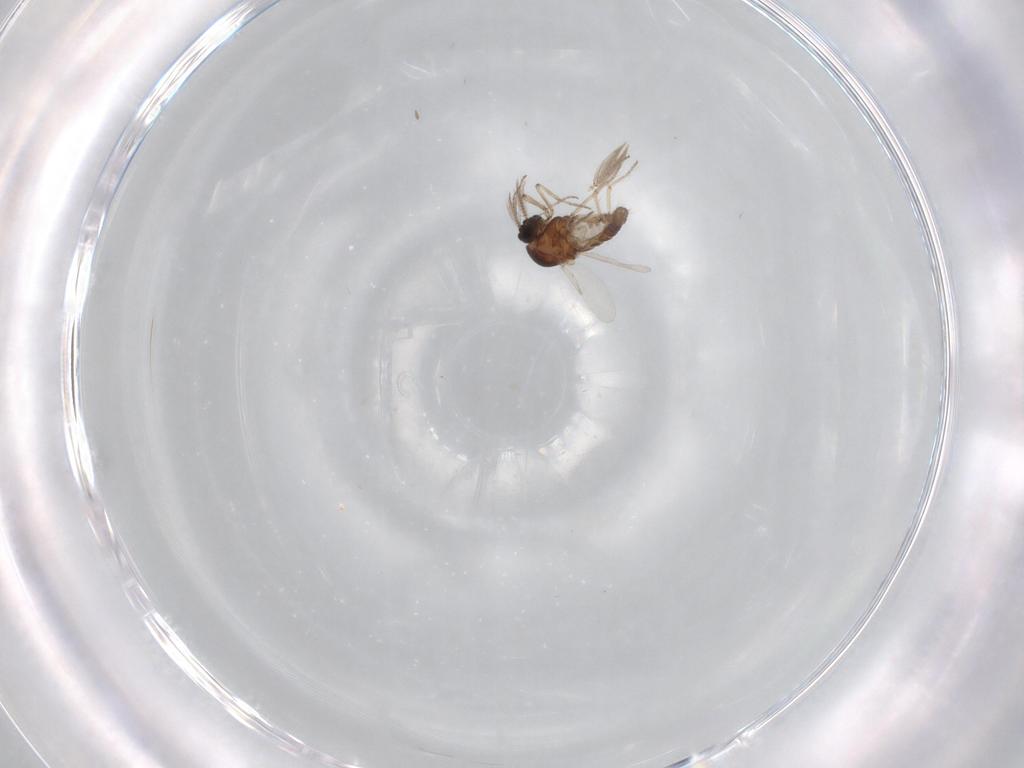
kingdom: Animalia
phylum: Arthropoda
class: Insecta
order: Diptera
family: Ceratopogonidae
